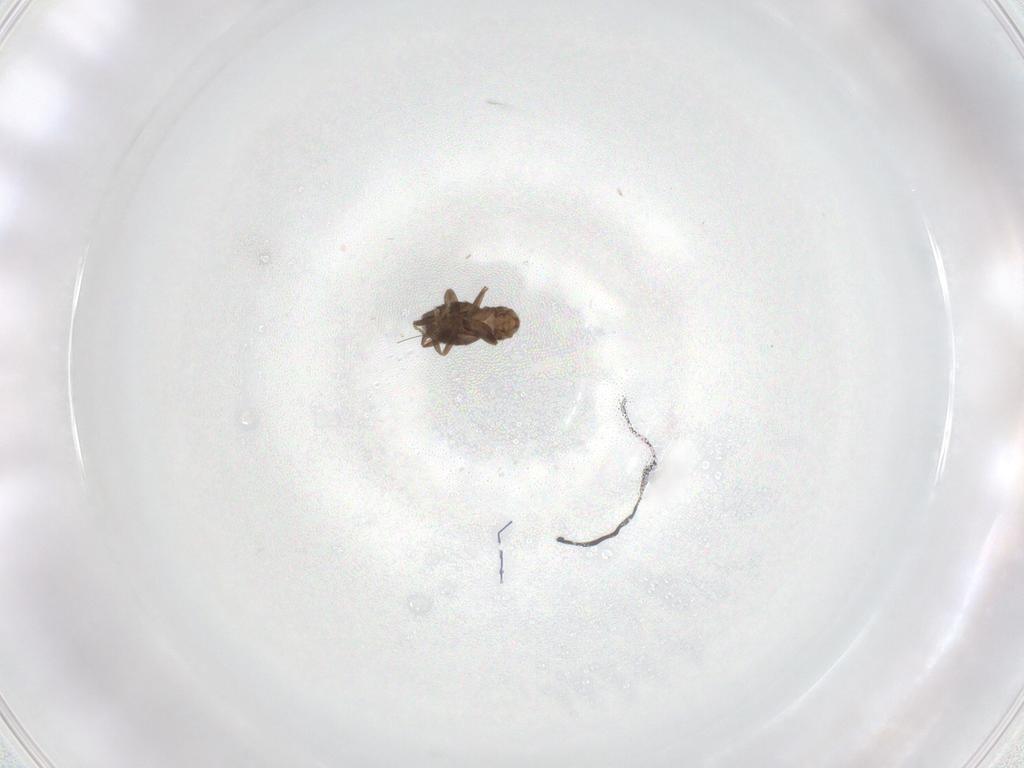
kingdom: Animalia
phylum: Arthropoda
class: Insecta
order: Diptera
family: Phoridae
